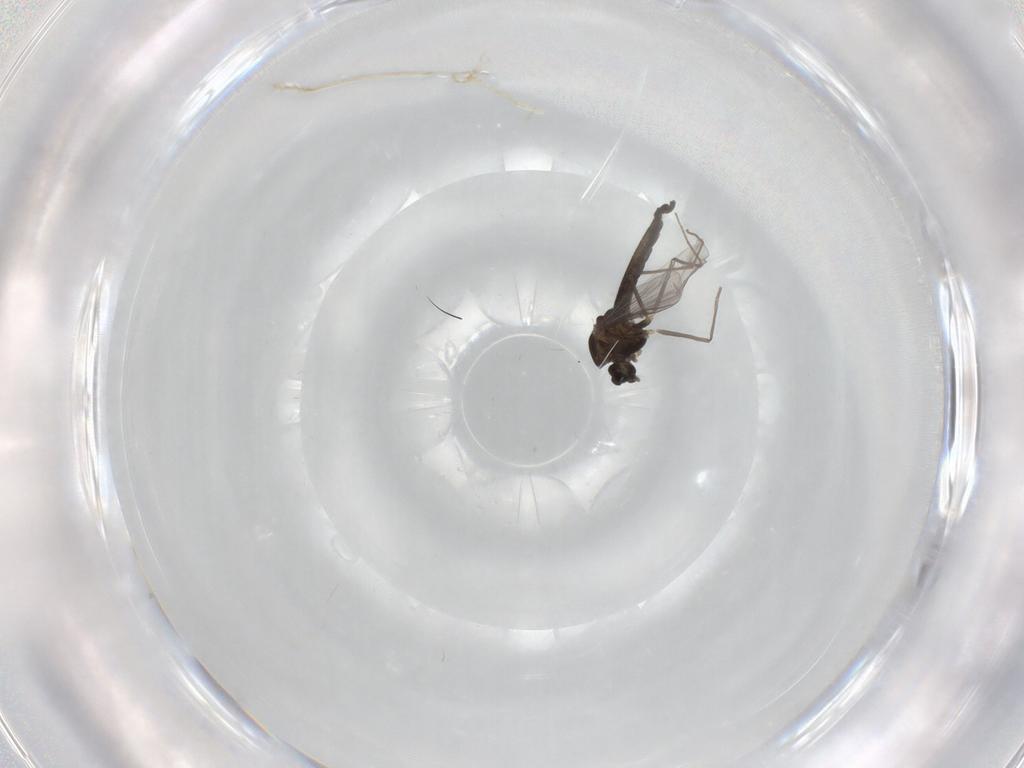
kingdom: Animalia
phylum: Arthropoda
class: Insecta
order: Diptera
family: Chironomidae
